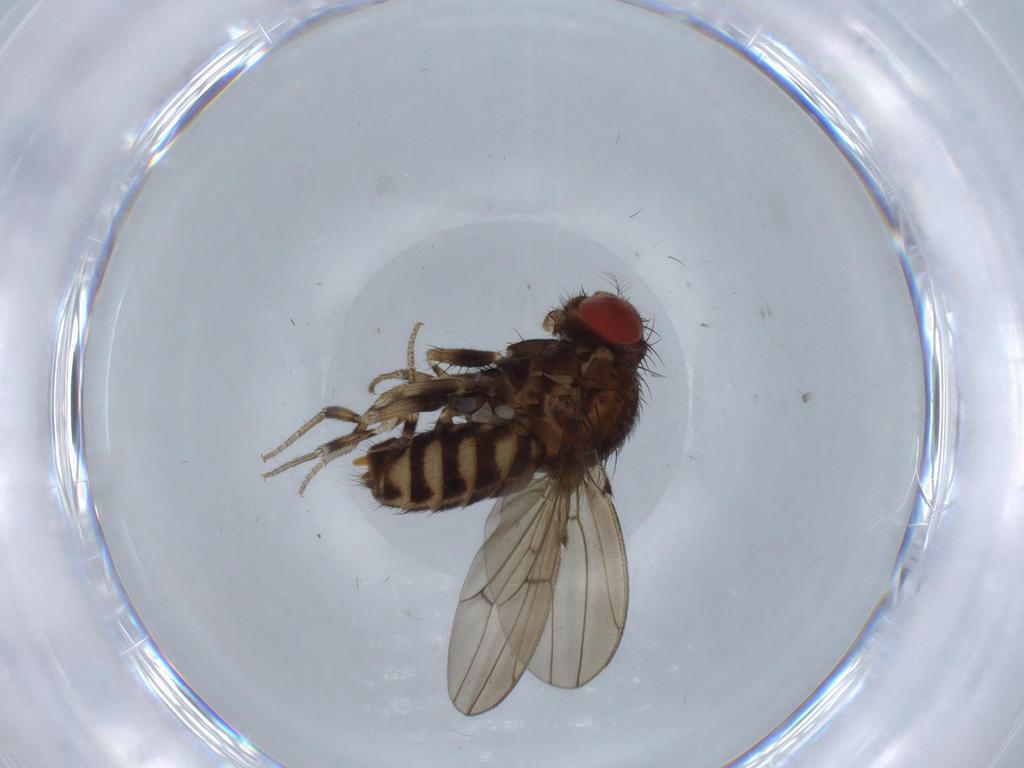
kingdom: Animalia
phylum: Arthropoda
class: Insecta
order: Diptera
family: Drosophilidae
